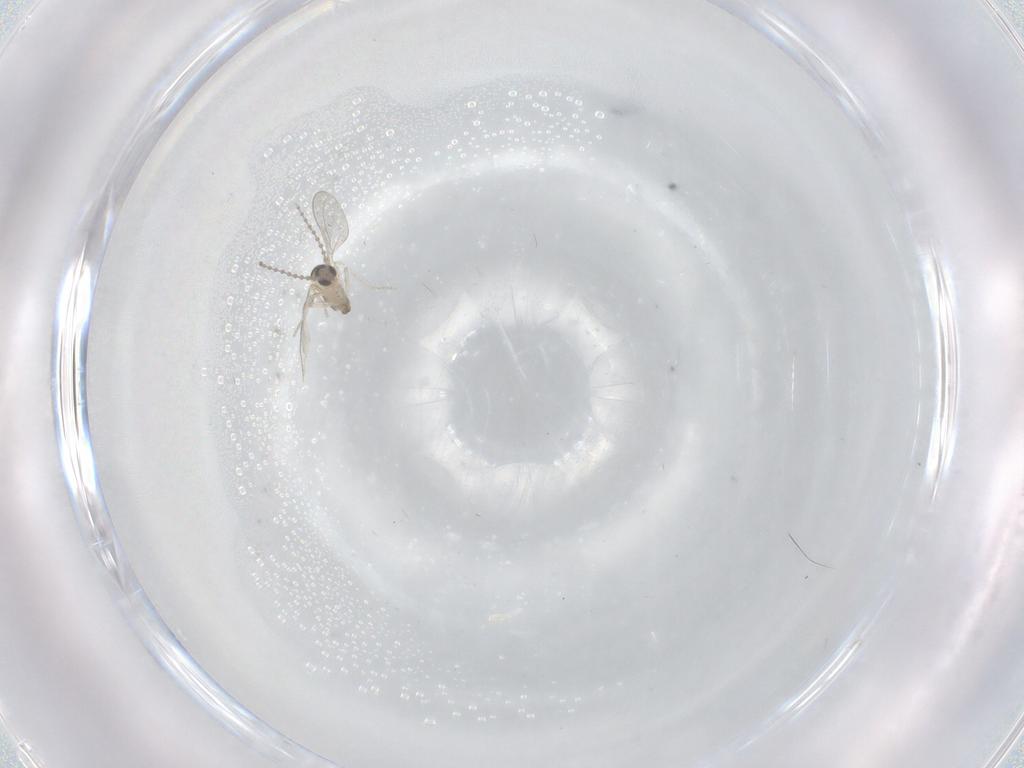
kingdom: Animalia
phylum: Arthropoda
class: Insecta
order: Diptera
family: Cecidomyiidae
